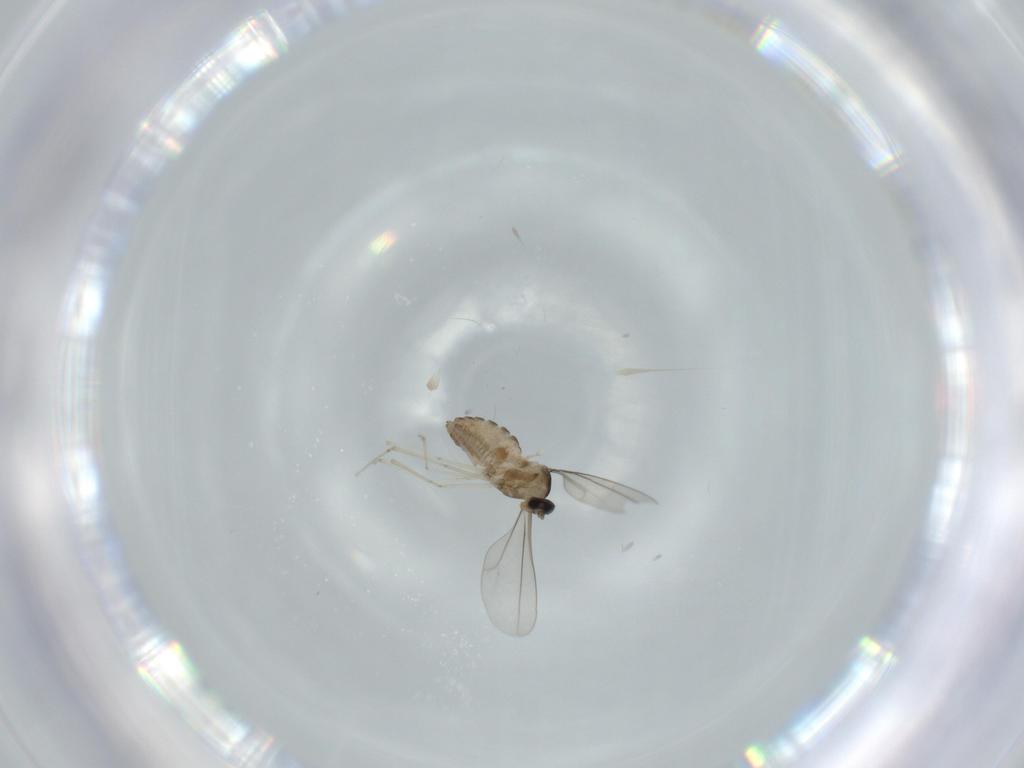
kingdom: Animalia
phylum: Arthropoda
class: Insecta
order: Diptera
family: Cecidomyiidae
